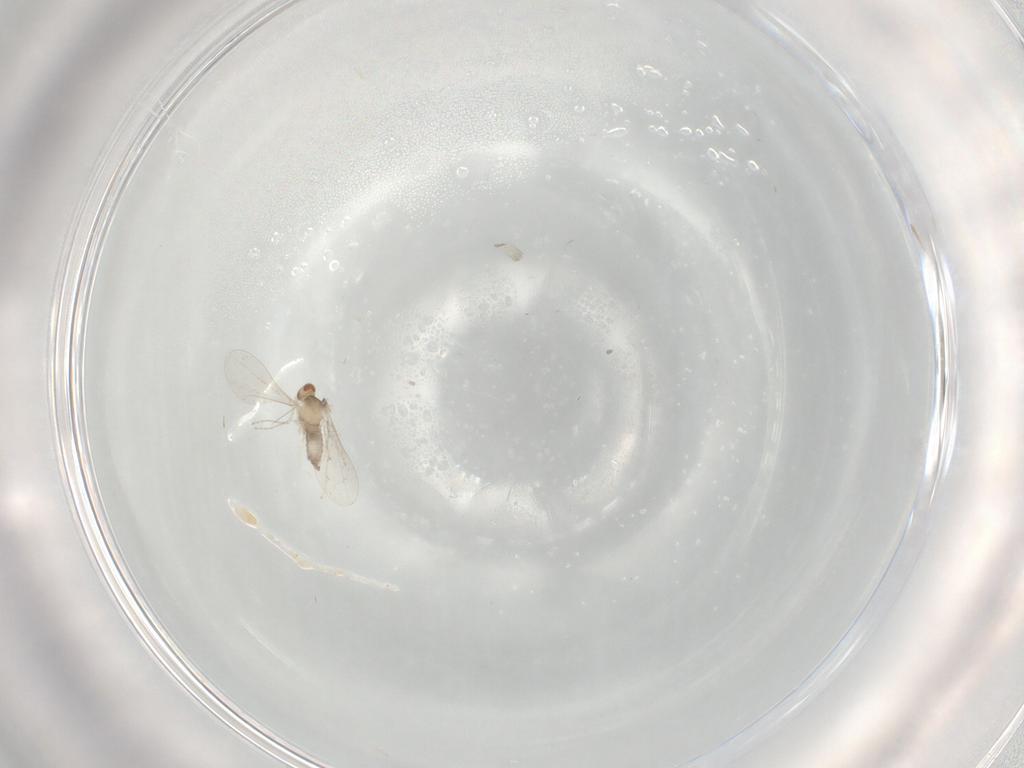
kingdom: Animalia
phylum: Arthropoda
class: Insecta
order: Diptera
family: Cecidomyiidae
